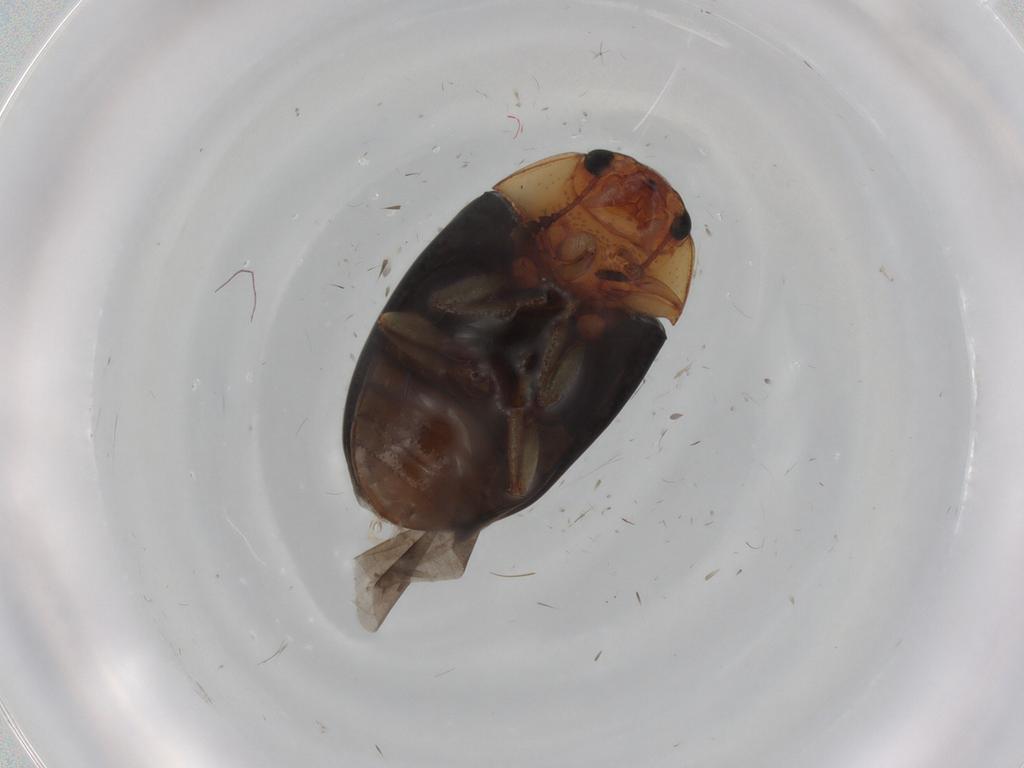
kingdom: Animalia
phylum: Arthropoda
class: Insecta
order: Coleoptera
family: Erotylidae
